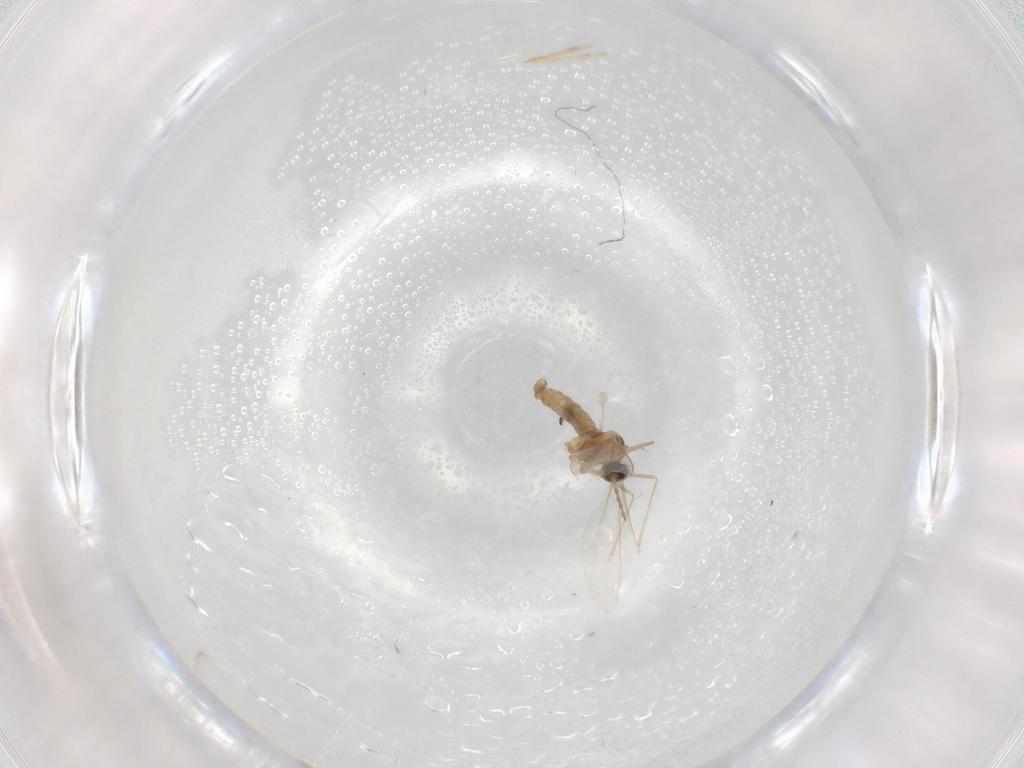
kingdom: Animalia
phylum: Arthropoda
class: Insecta
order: Diptera
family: Cecidomyiidae
